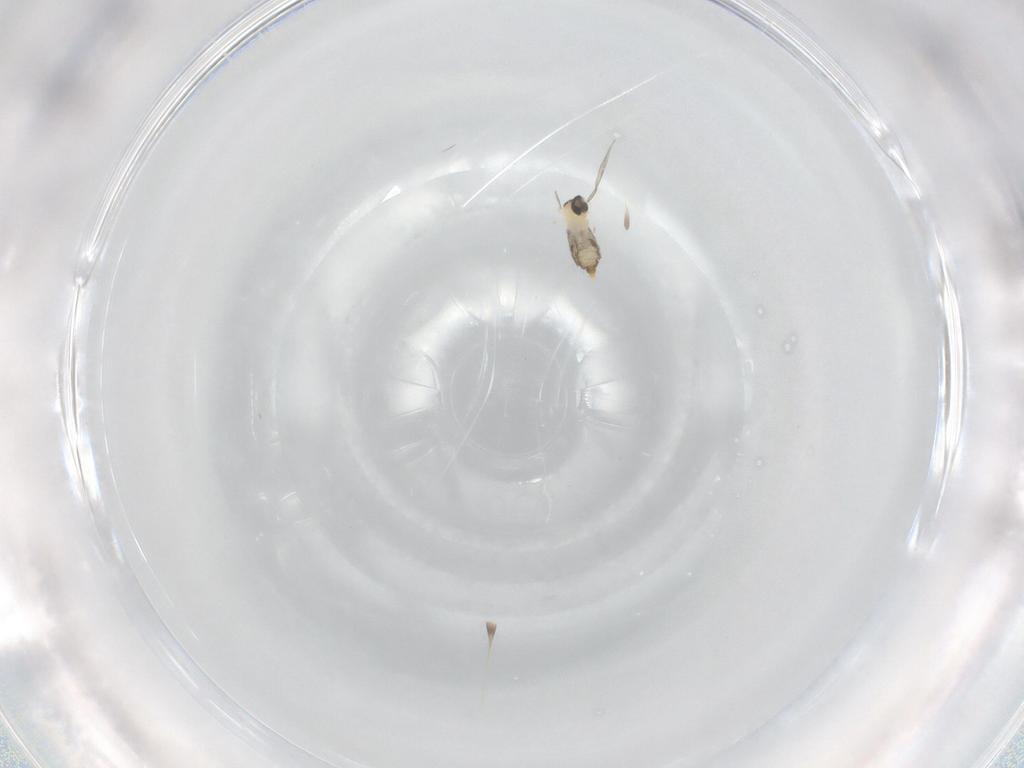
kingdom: Animalia
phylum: Arthropoda
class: Insecta
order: Diptera
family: Cecidomyiidae
